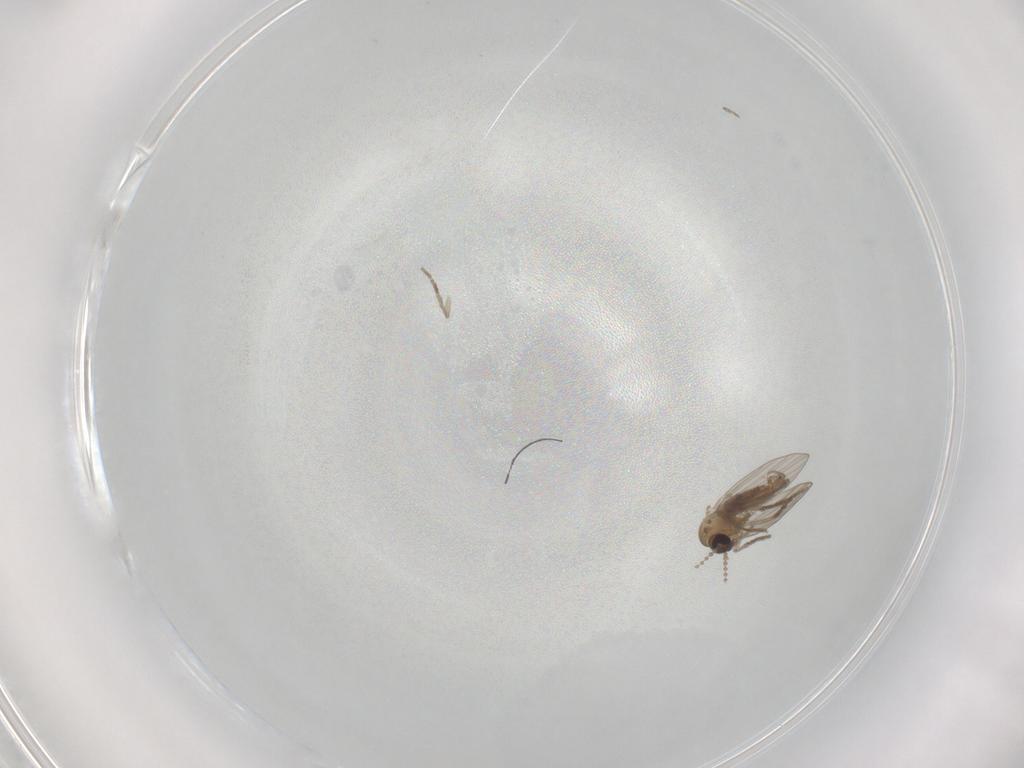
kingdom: Animalia
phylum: Arthropoda
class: Insecta
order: Diptera
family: Psychodidae
